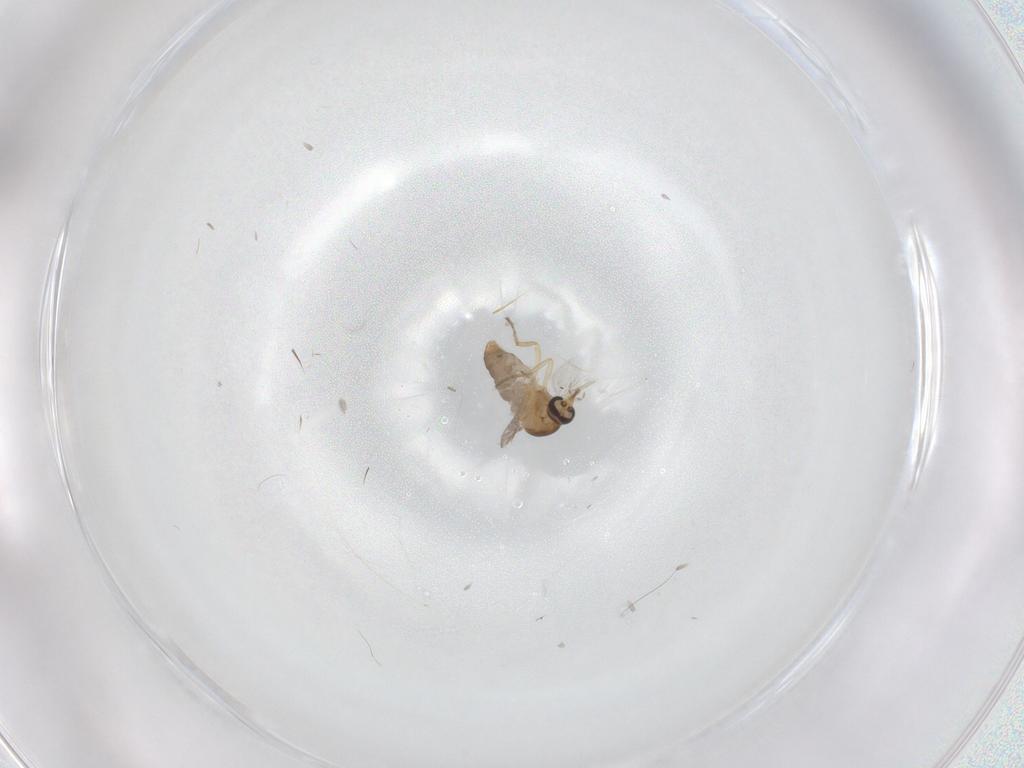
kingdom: Animalia
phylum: Arthropoda
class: Insecta
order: Diptera
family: Ceratopogonidae
